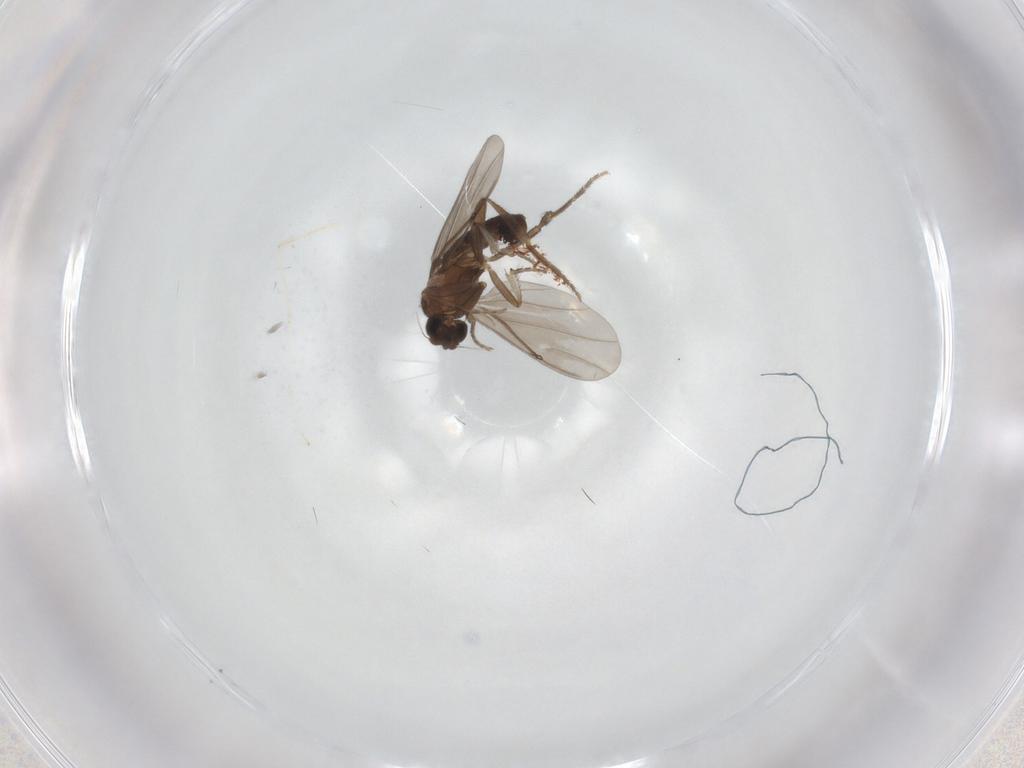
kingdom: Animalia
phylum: Arthropoda
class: Insecta
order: Diptera
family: Phoridae
